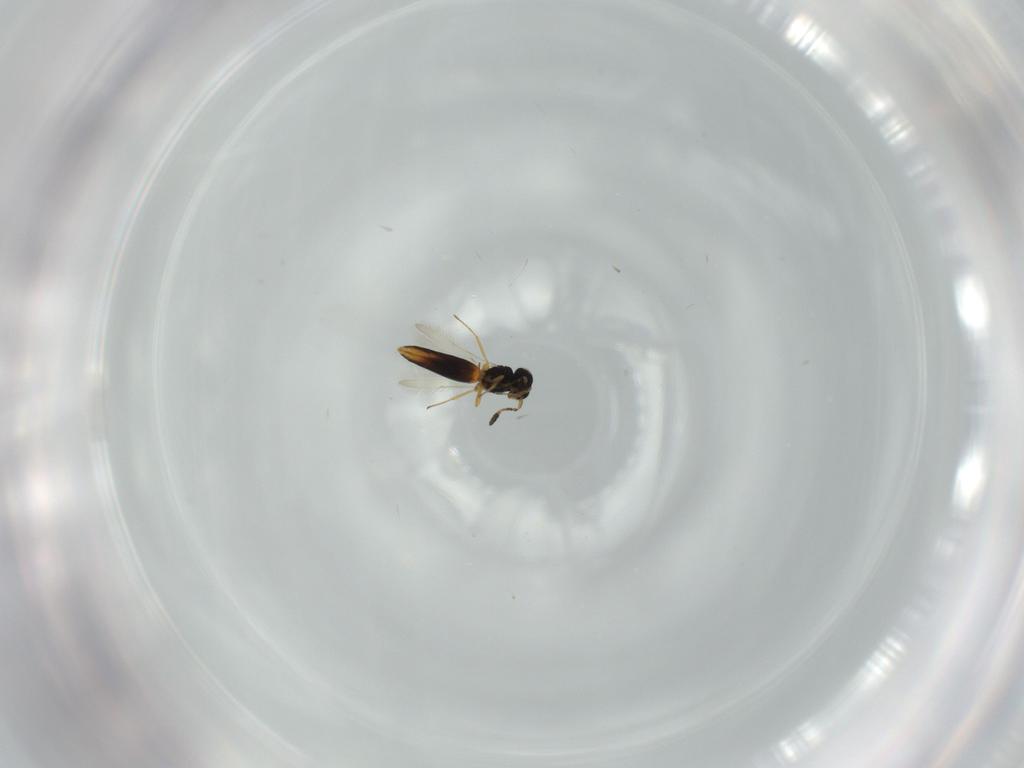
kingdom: Animalia
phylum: Arthropoda
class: Insecta
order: Hymenoptera
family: Scelionidae
